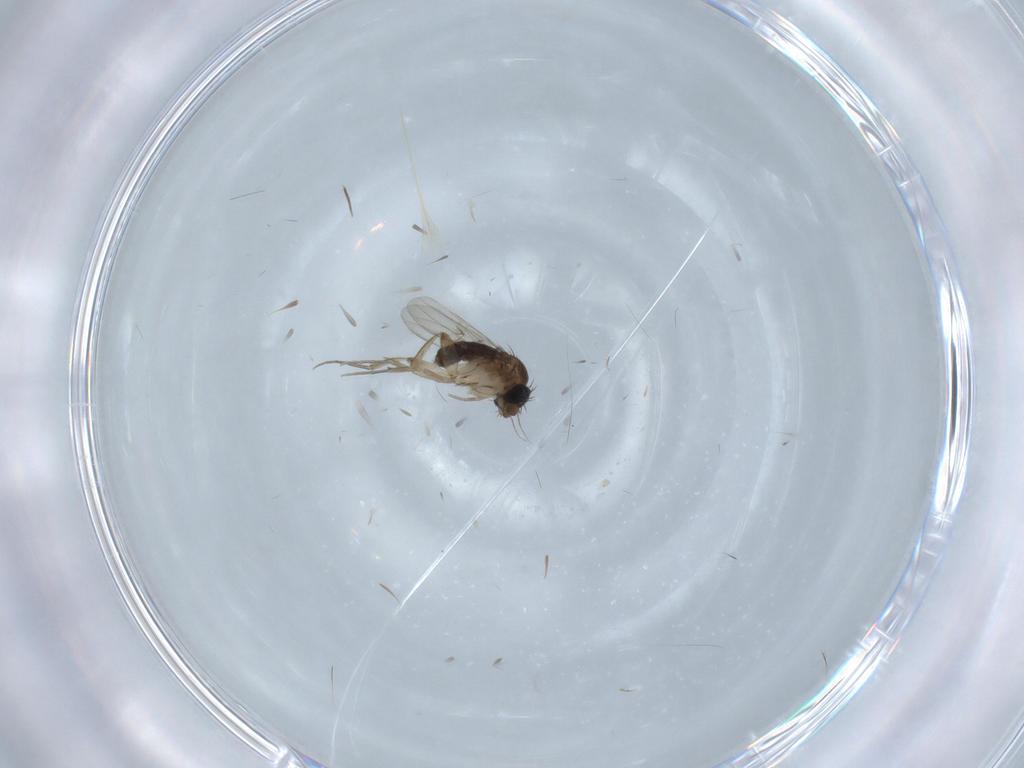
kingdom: Animalia
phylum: Arthropoda
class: Insecta
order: Diptera
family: Phoridae
